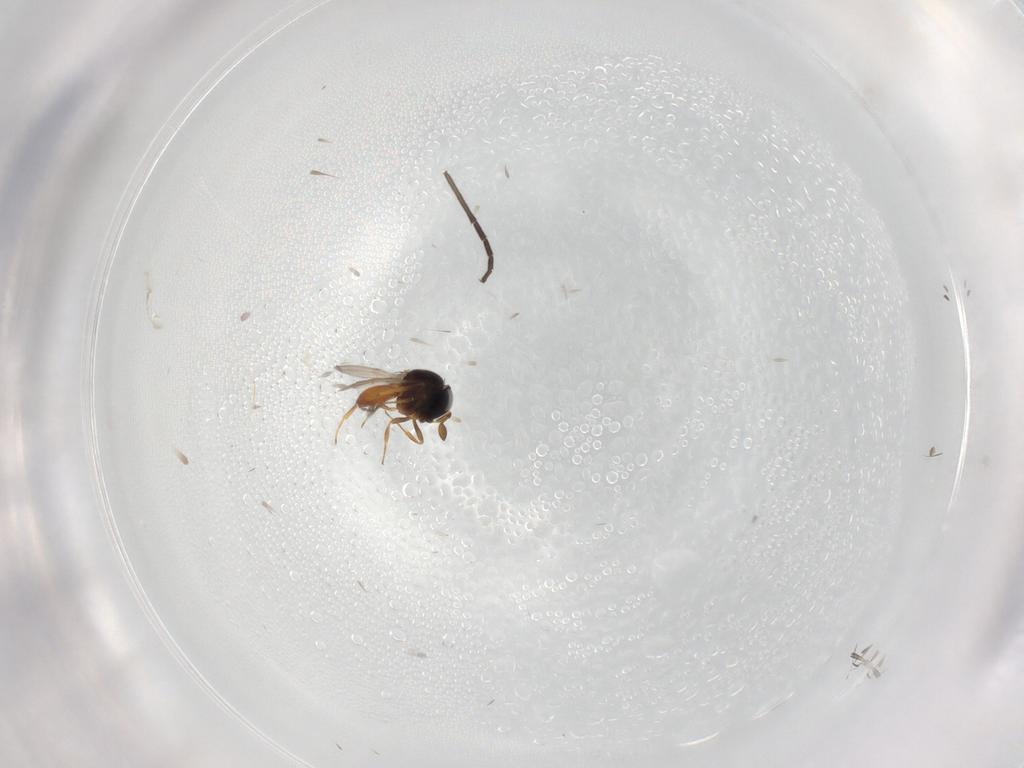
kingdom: Animalia
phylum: Arthropoda
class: Insecta
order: Hymenoptera
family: Scelionidae
